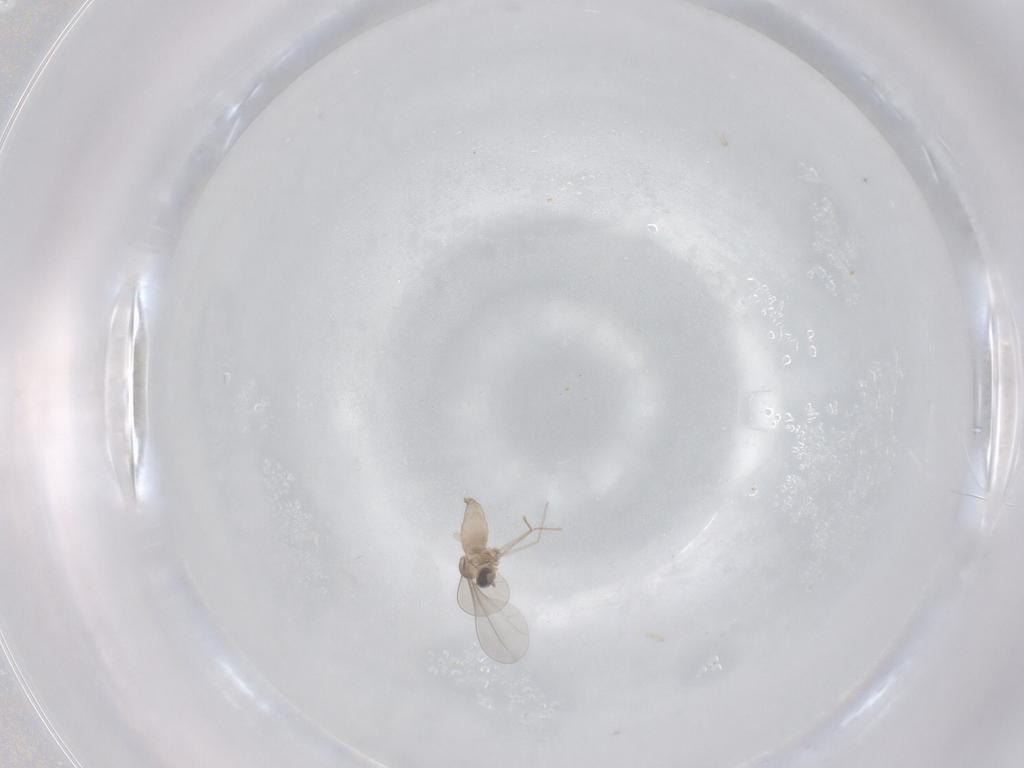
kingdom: Animalia
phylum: Arthropoda
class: Insecta
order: Diptera
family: Cecidomyiidae
